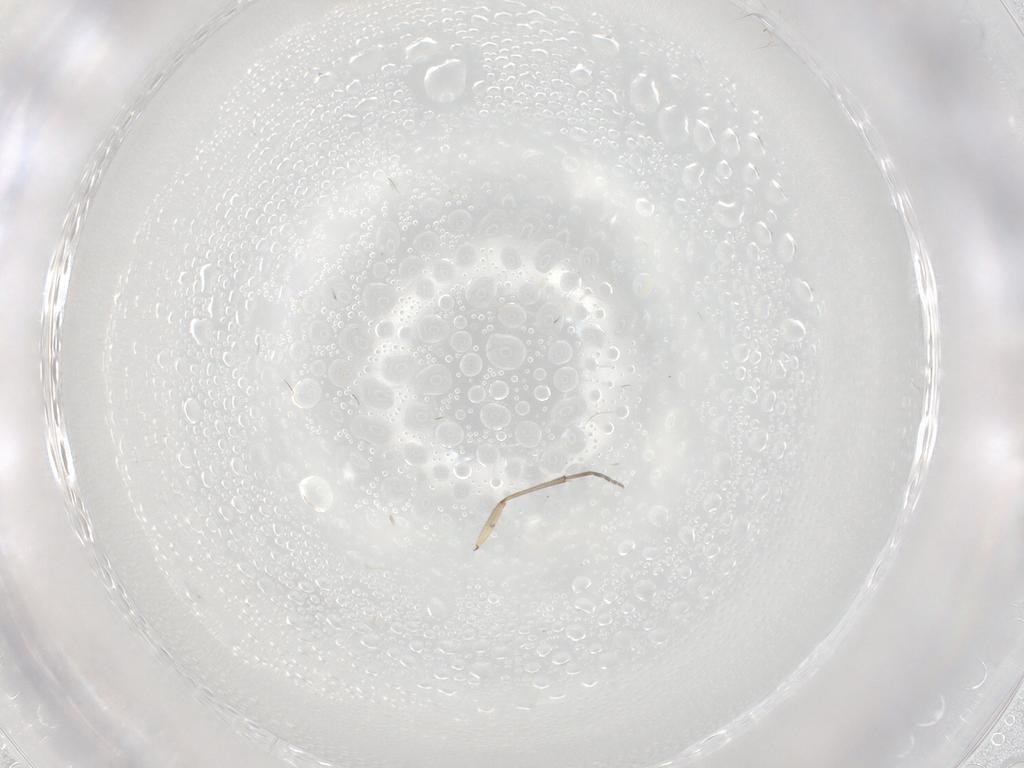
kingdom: Animalia
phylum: Arthropoda
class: Insecta
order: Diptera
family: Cecidomyiidae
